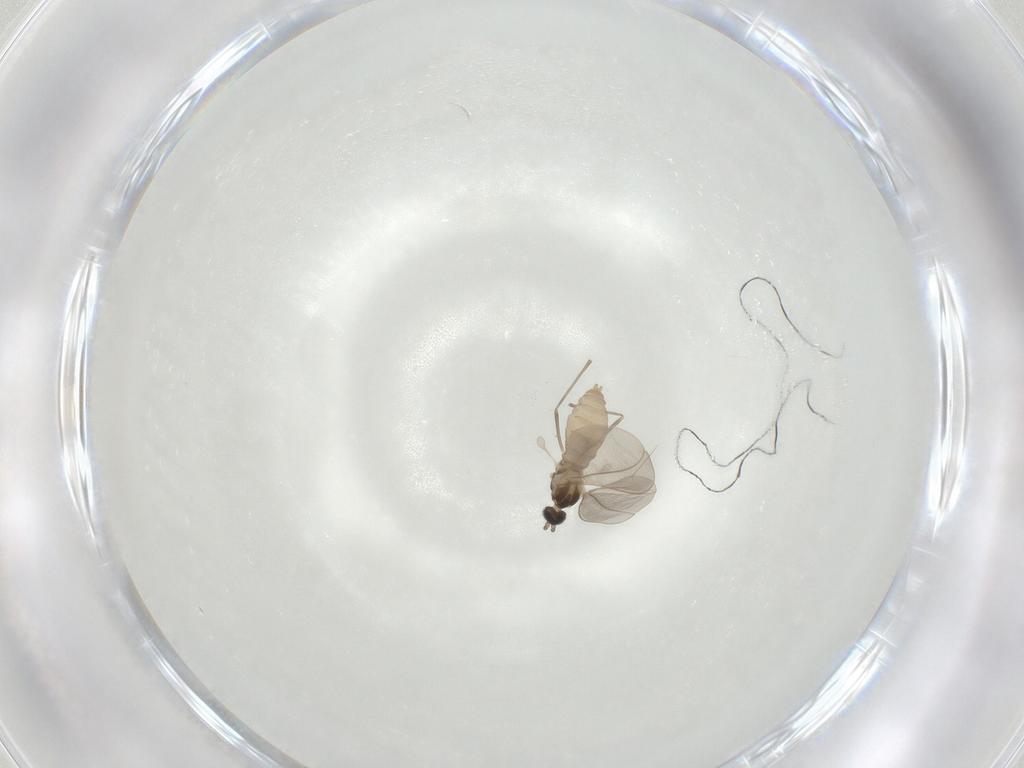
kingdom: Animalia
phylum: Arthropoda
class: Insecta
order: Diptera
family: Cecidomyiidae
